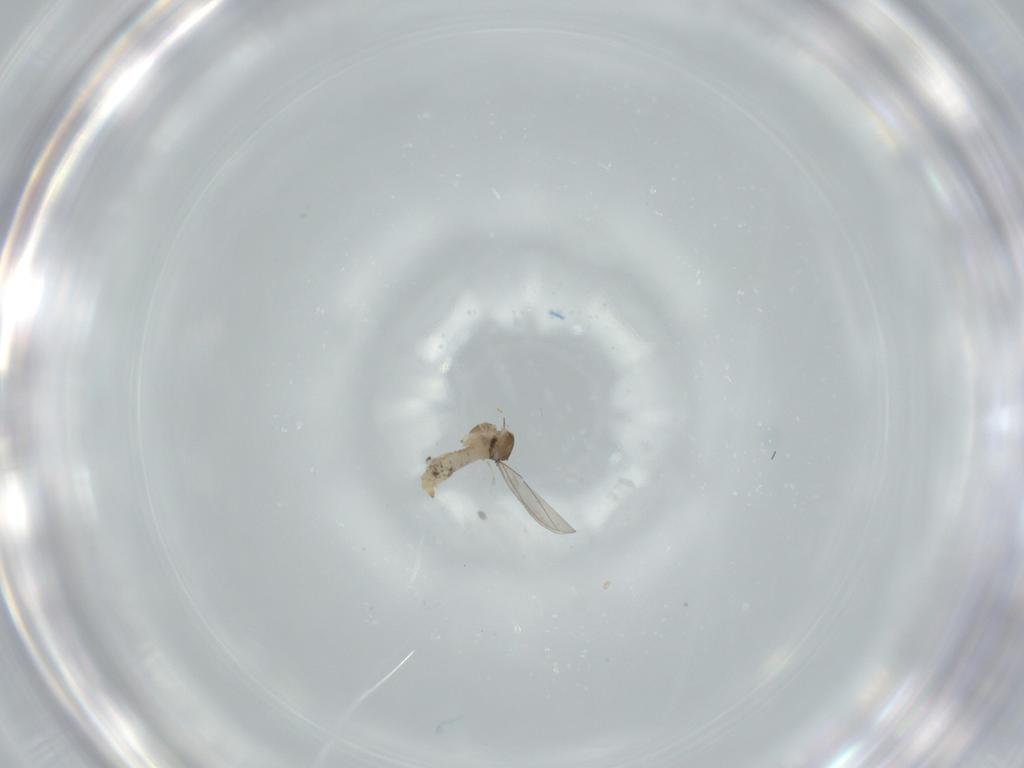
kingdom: Animalia
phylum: Arthropoda
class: Insecta
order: Diptera
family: Cecidomyiidae
